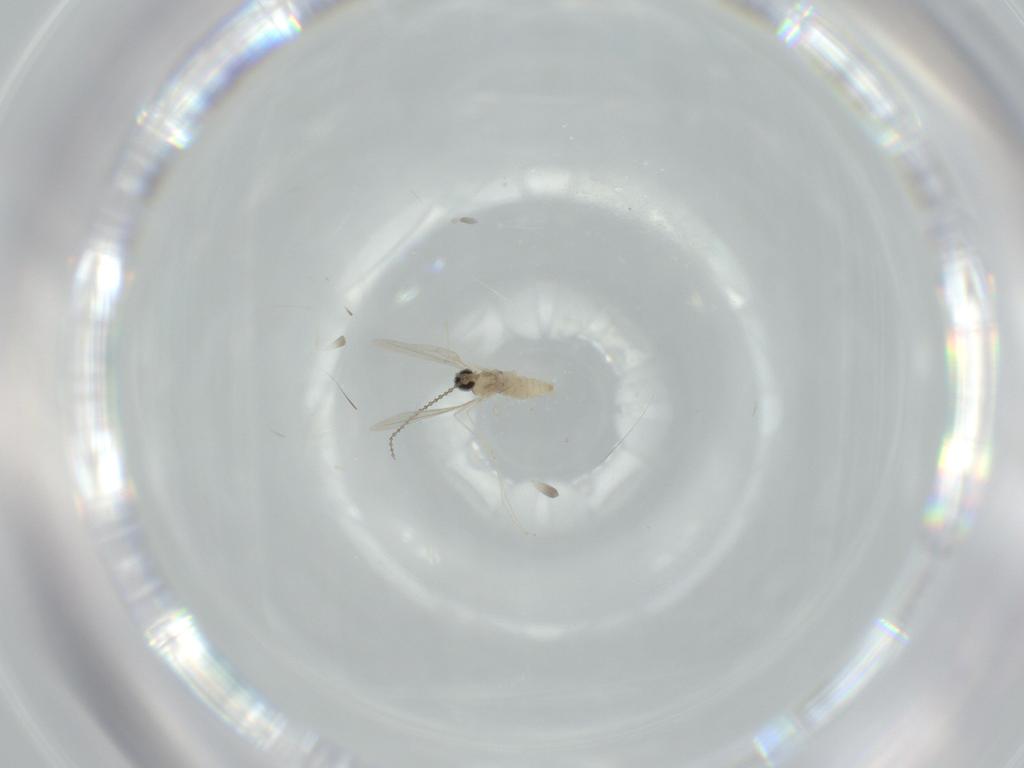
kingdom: Animalia
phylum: Arthropoda
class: Insecta
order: Diptera
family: Cecidomyiidae
